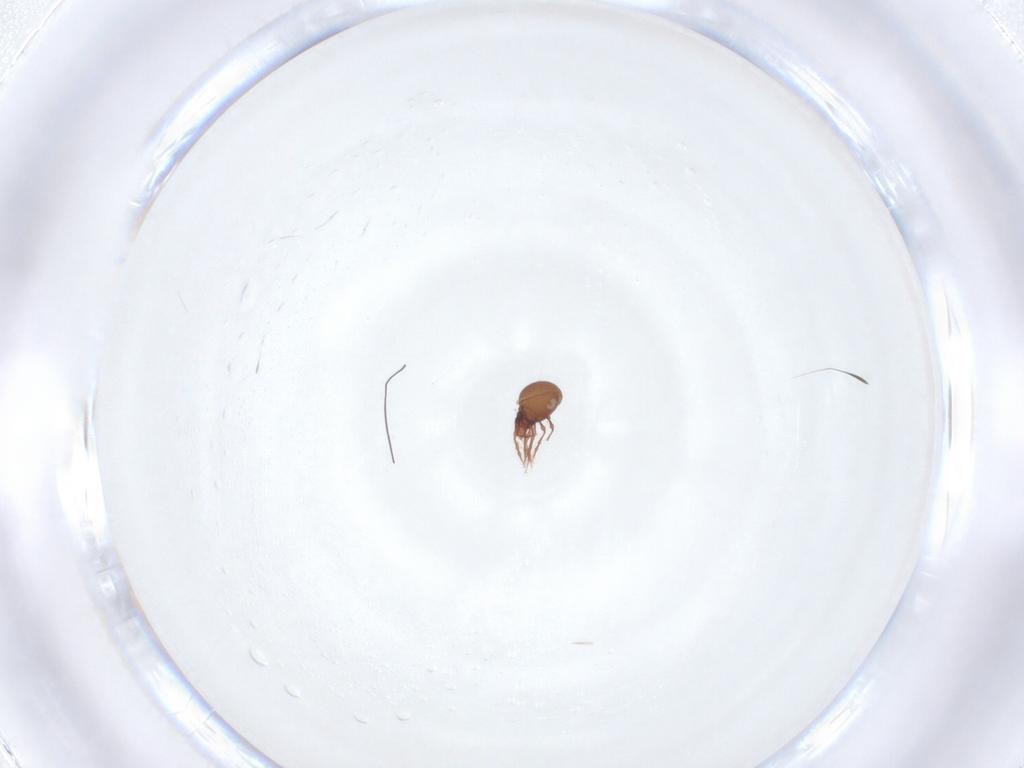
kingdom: Animalia
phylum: Arthropoda
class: Arachnida
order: Sarcoptiformes
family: Oppiidae
